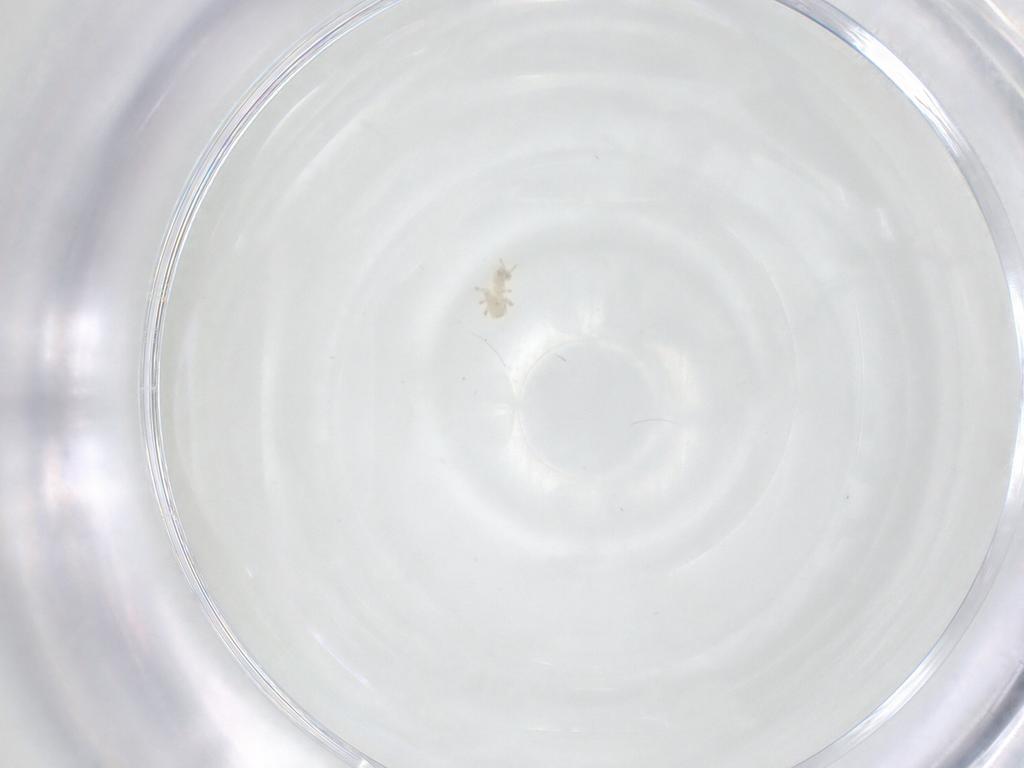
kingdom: Animalia
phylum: Arthropoda
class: Arachnida
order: Mesostigmata
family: Ascidae
